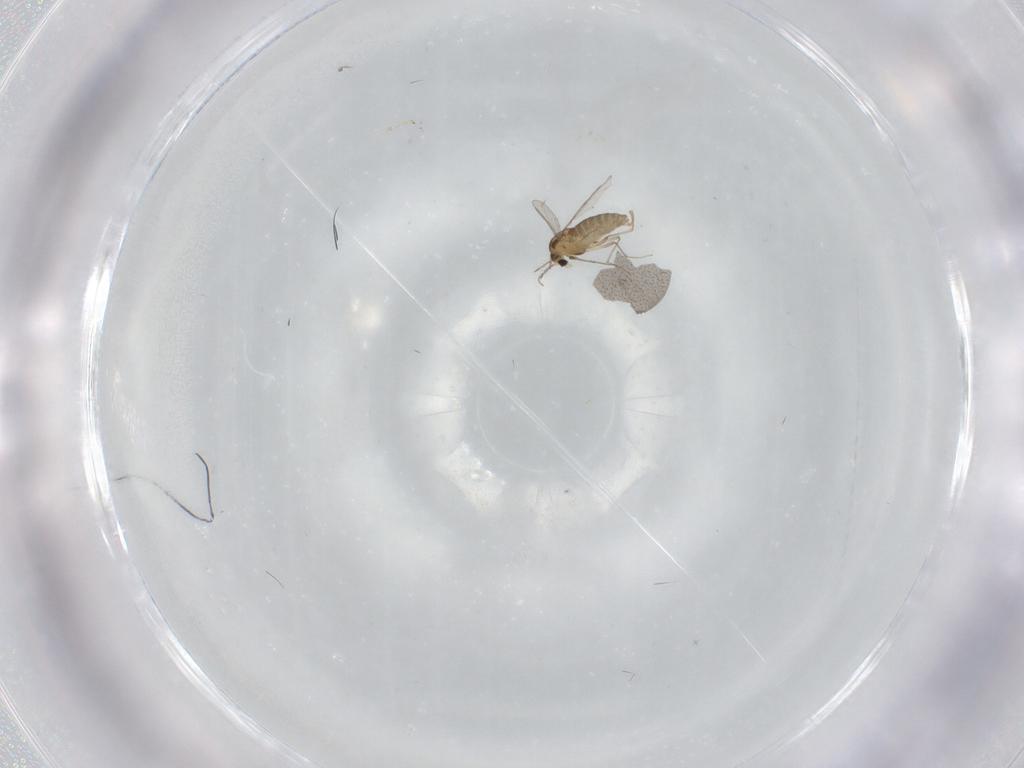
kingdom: Animalia
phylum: Arthropoda
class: Insecta
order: Diptera
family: Chironomidae
